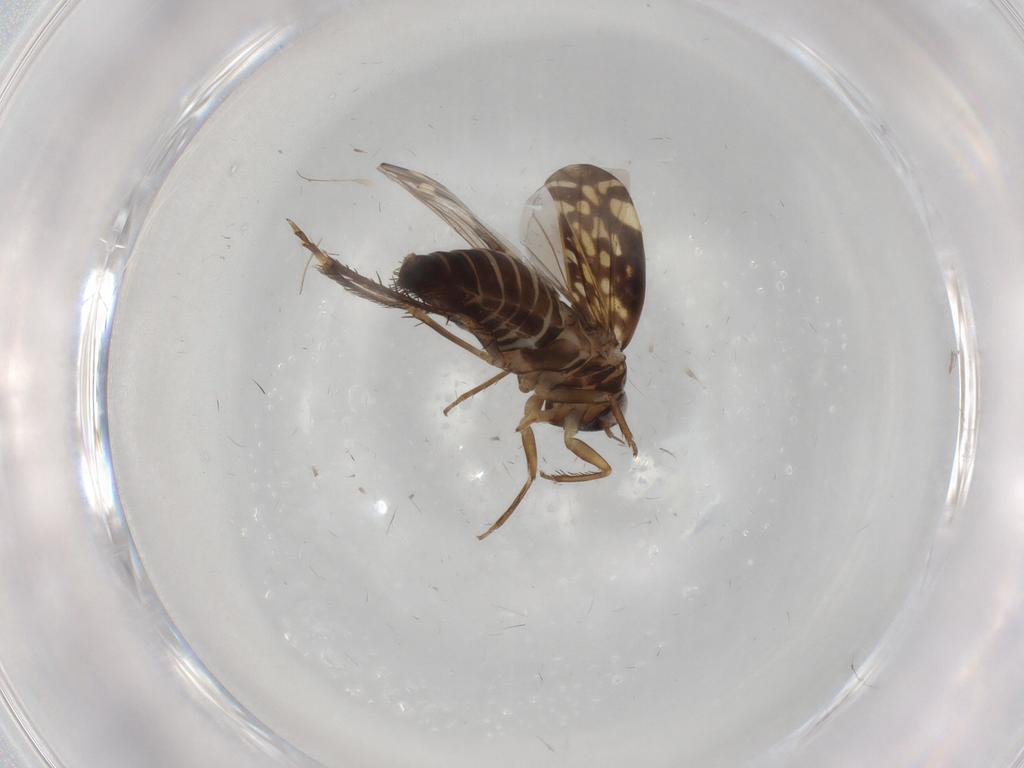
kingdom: Animalia
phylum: Arthropoda
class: Insecta
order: Hemiptera
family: Cicadellidae
